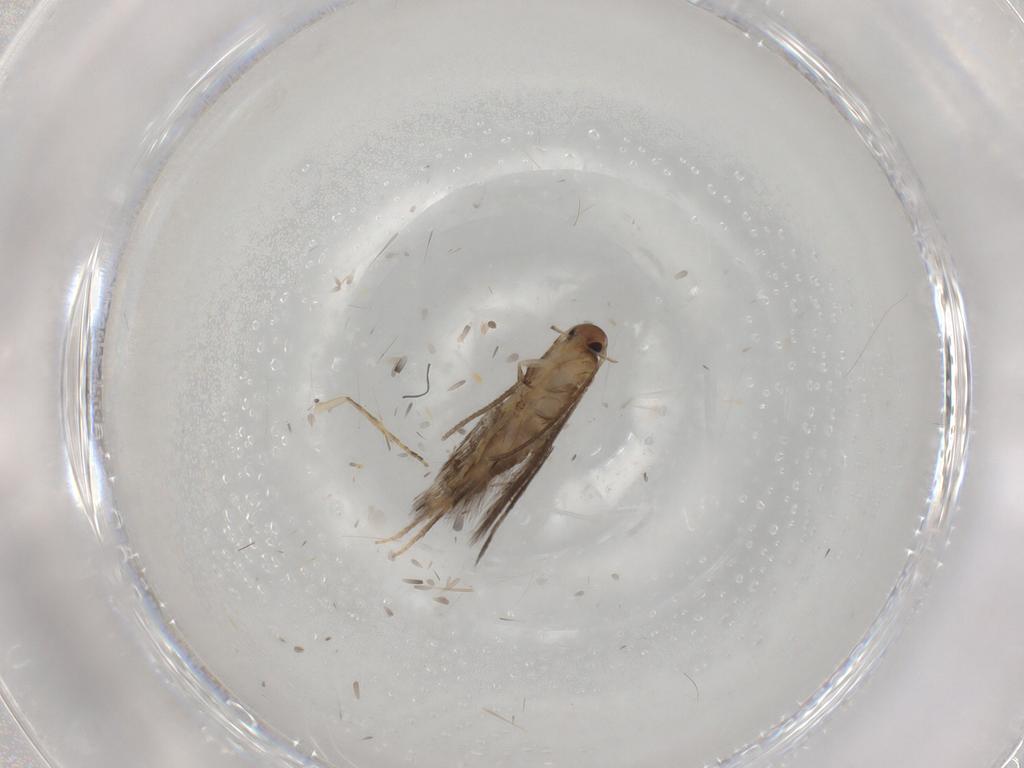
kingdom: Animalia
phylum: Arthropoda
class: Insecta
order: Lepidoptera
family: Elachistidae
